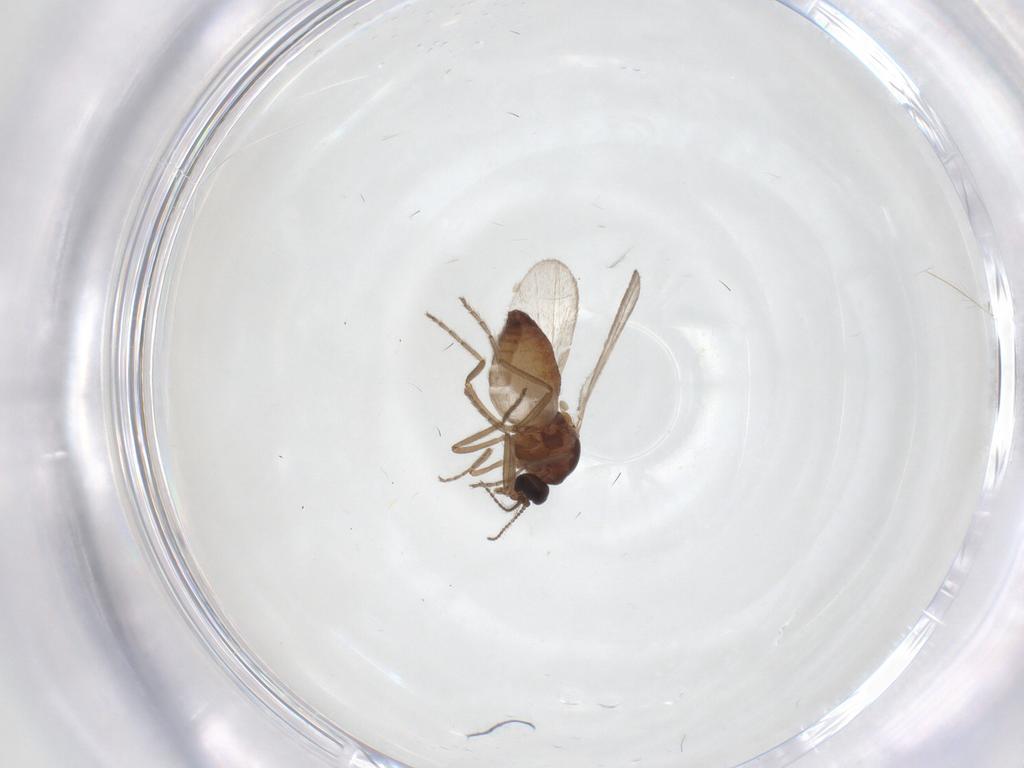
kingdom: Animalia
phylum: Arthropoda
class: Insecta
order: Diptera
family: Ceratopogonidae
